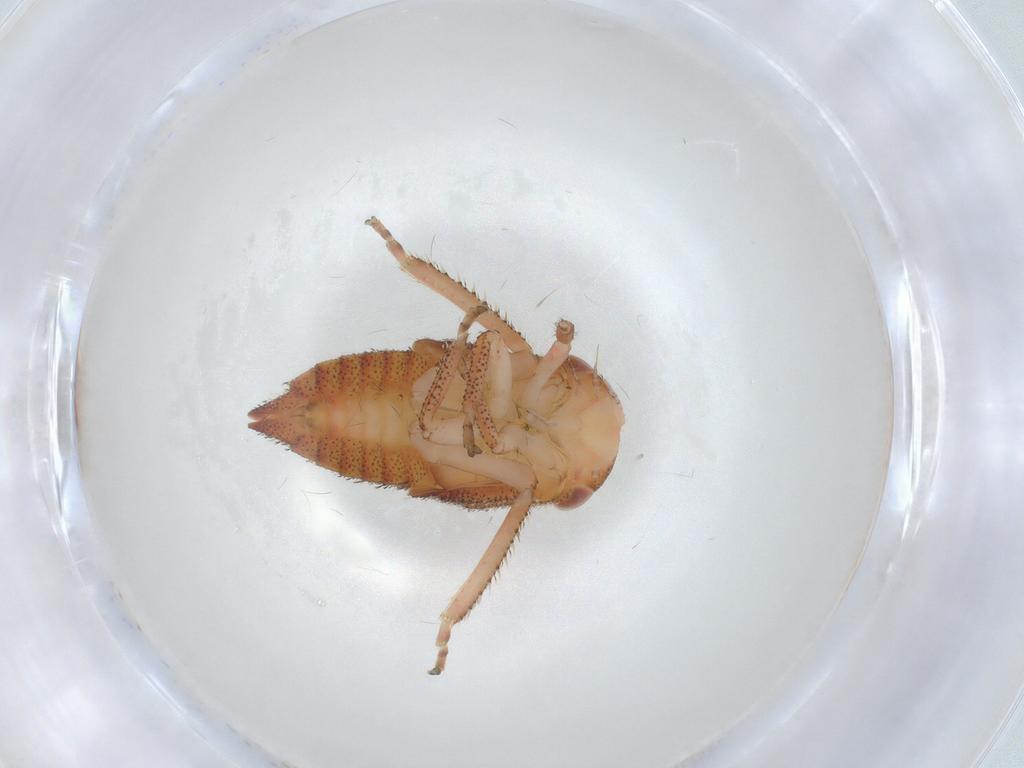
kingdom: Animalia
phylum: Arthropoda
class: Insecta
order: Hemiptera
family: Cicadellidae
